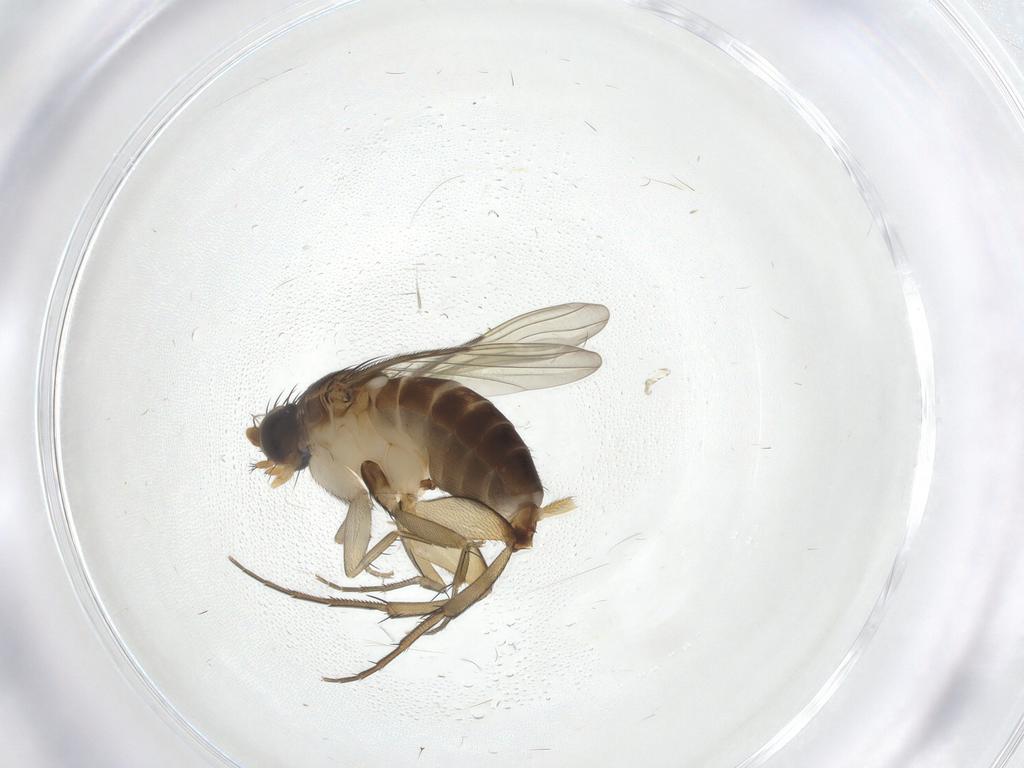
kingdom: Animalia
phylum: Arthropoda
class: Insecta
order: Diptera
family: Phoridae
